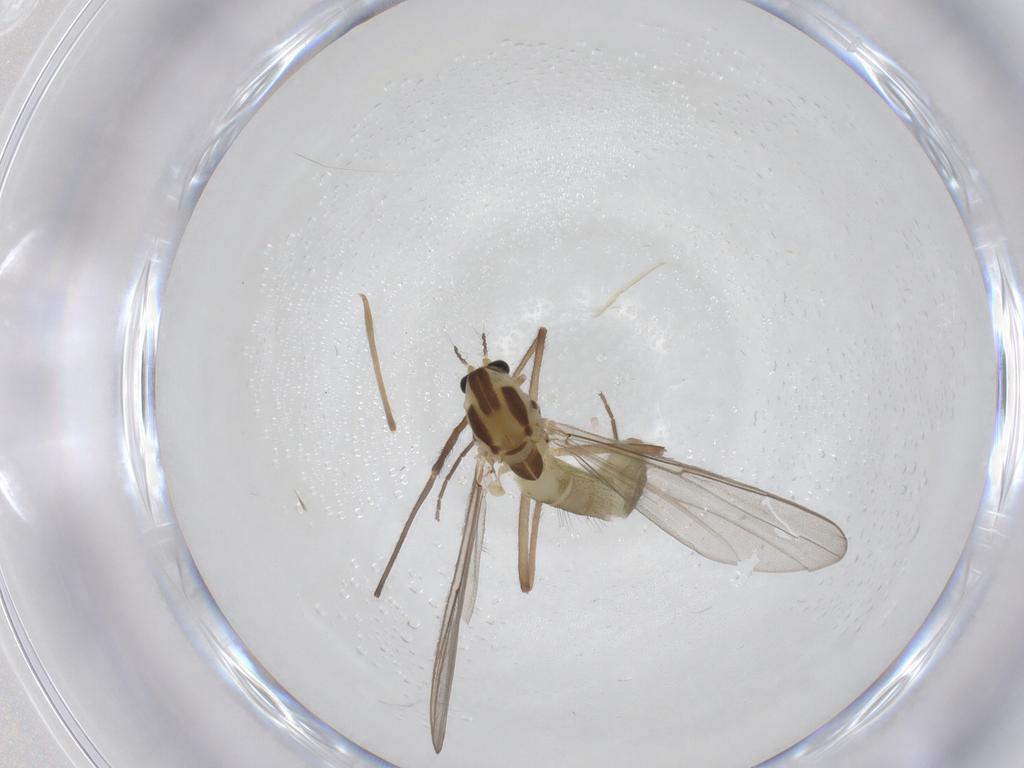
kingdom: Animalia
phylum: Arthropoda
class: Insecta
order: Diptera
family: Chironomidae
